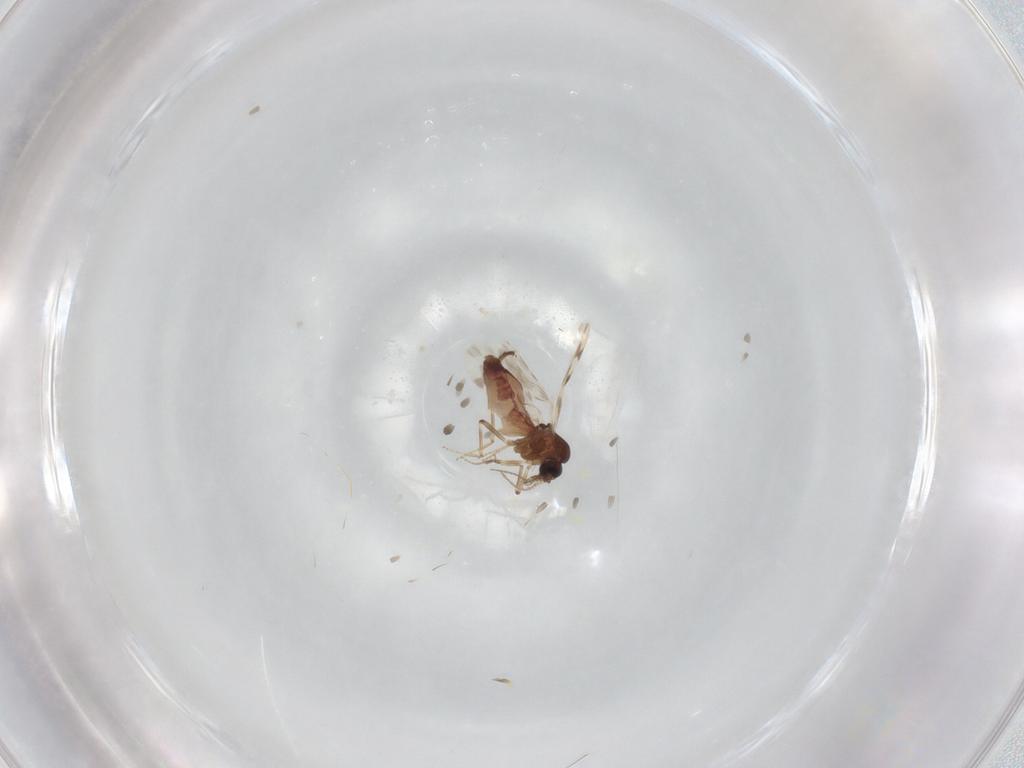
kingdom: Animalia
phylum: Arthropoda
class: Insecta
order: Diptera
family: Ceratopogonidae
